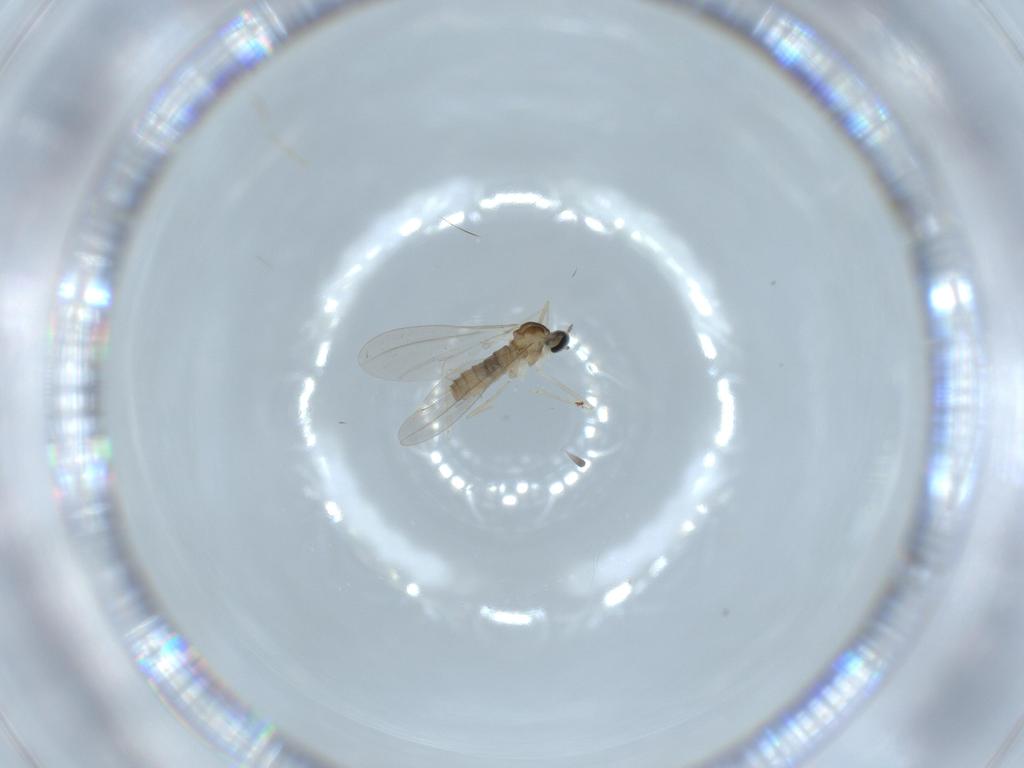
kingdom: Animalia
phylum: Arthropoda
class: Insecta
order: Diptera
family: Cecidomyiidae
